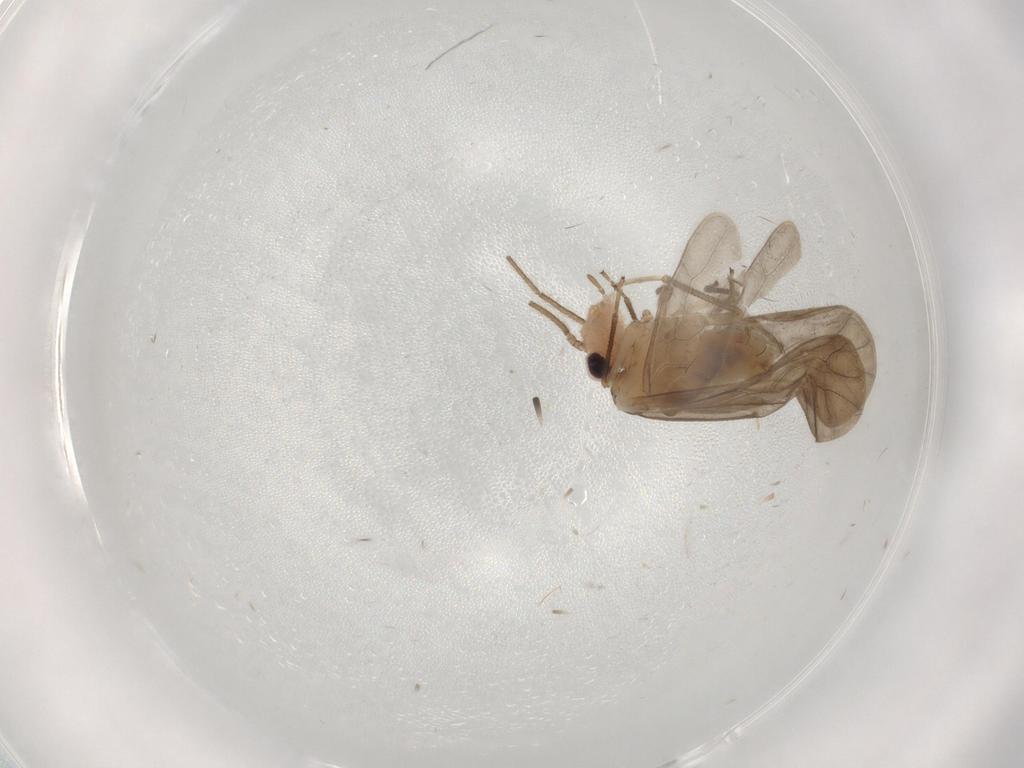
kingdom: Animalia
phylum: Arthropoda
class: Insecta
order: Psocodea
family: Caeciliusidae
